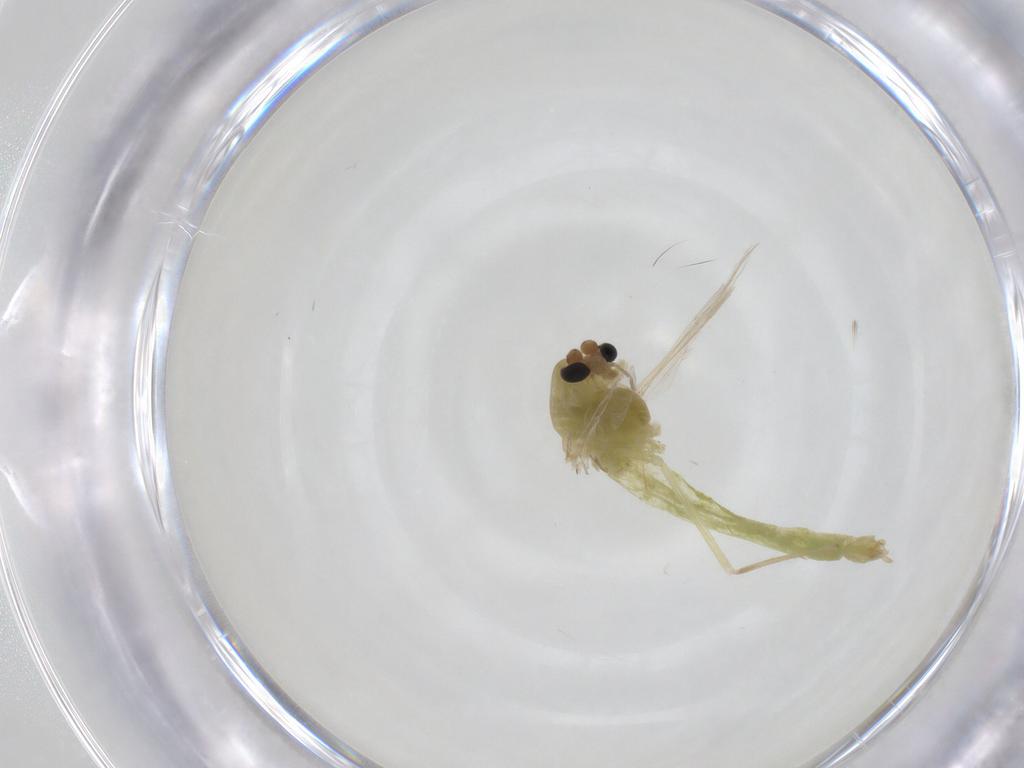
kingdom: Animalia
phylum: Arthropoda
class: Insecta
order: Diptera
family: Chironomidae
